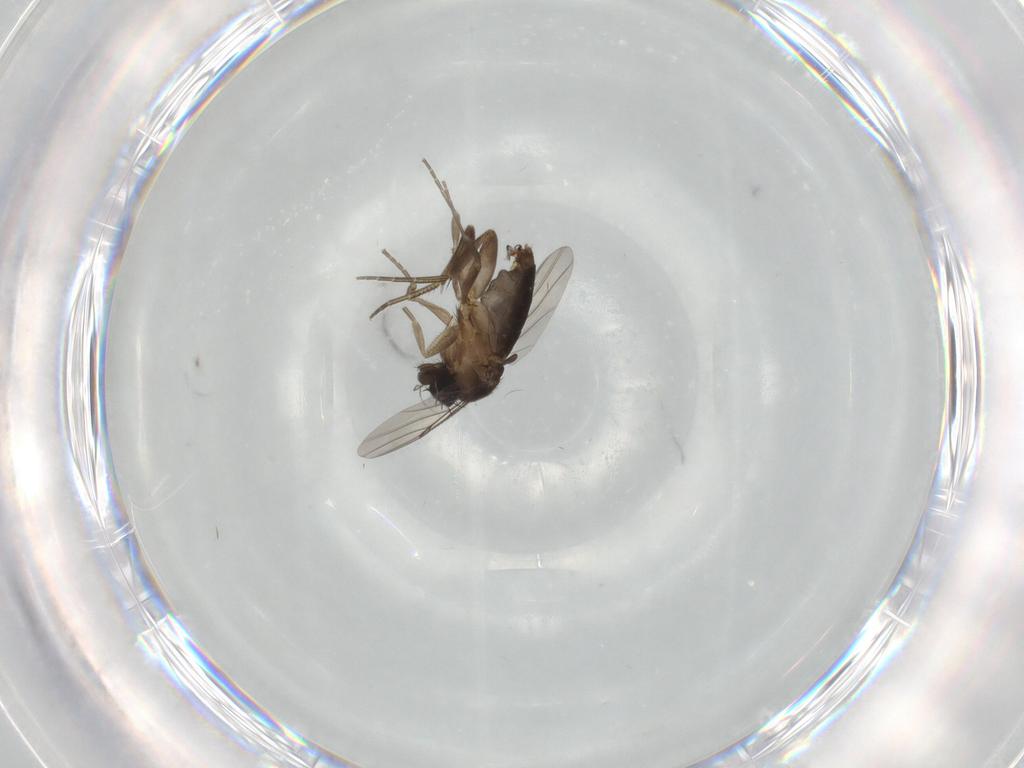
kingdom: Animalia
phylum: Arthropoda
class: Insecta
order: Diptera
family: Phoridae
